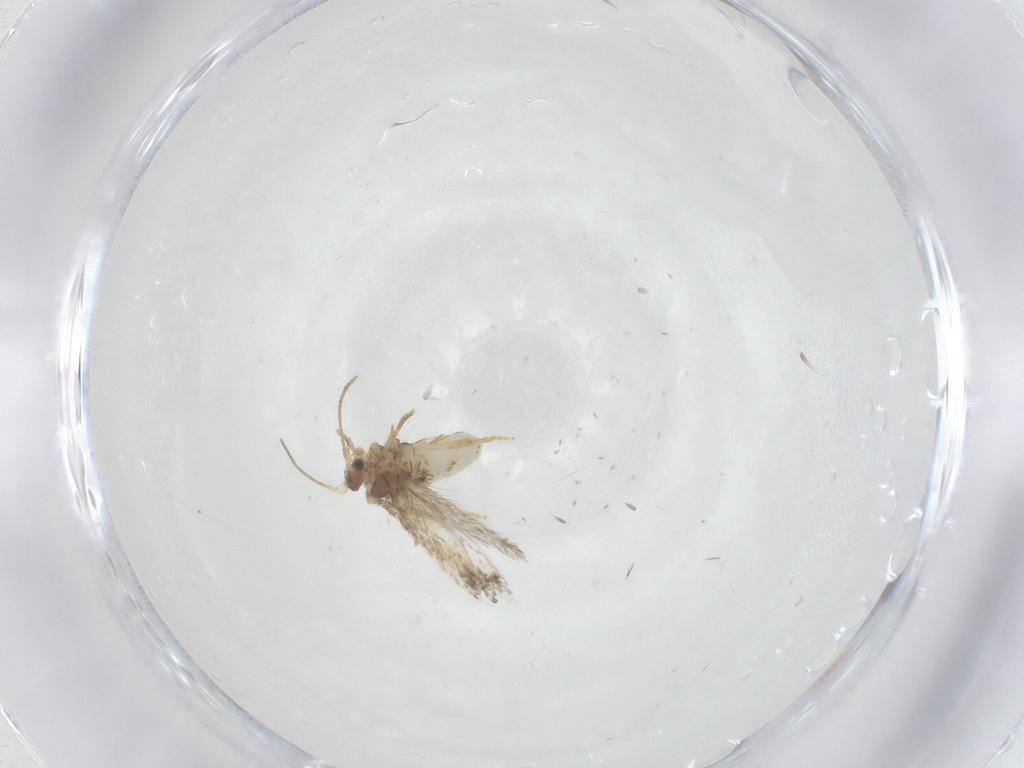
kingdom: Animalia
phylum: Arthropoda
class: Insecta
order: Lepidoptera
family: Nepticulidae
